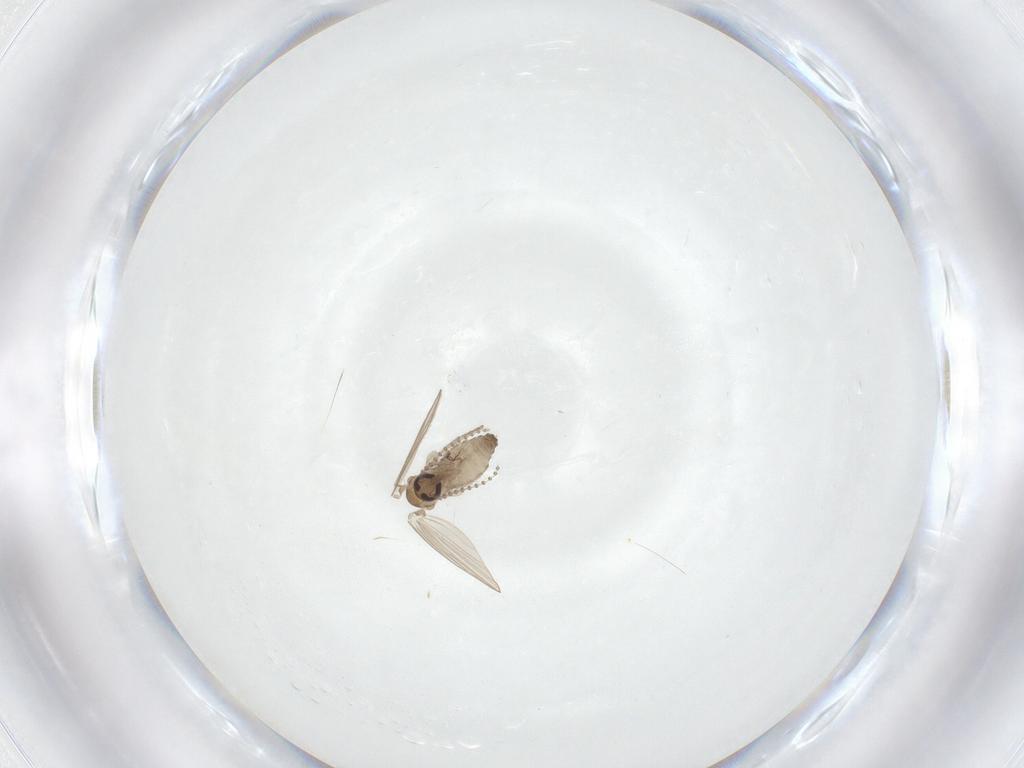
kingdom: Animalia
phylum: Arthropoda
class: Insecta
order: Diptera
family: Psychodidae
